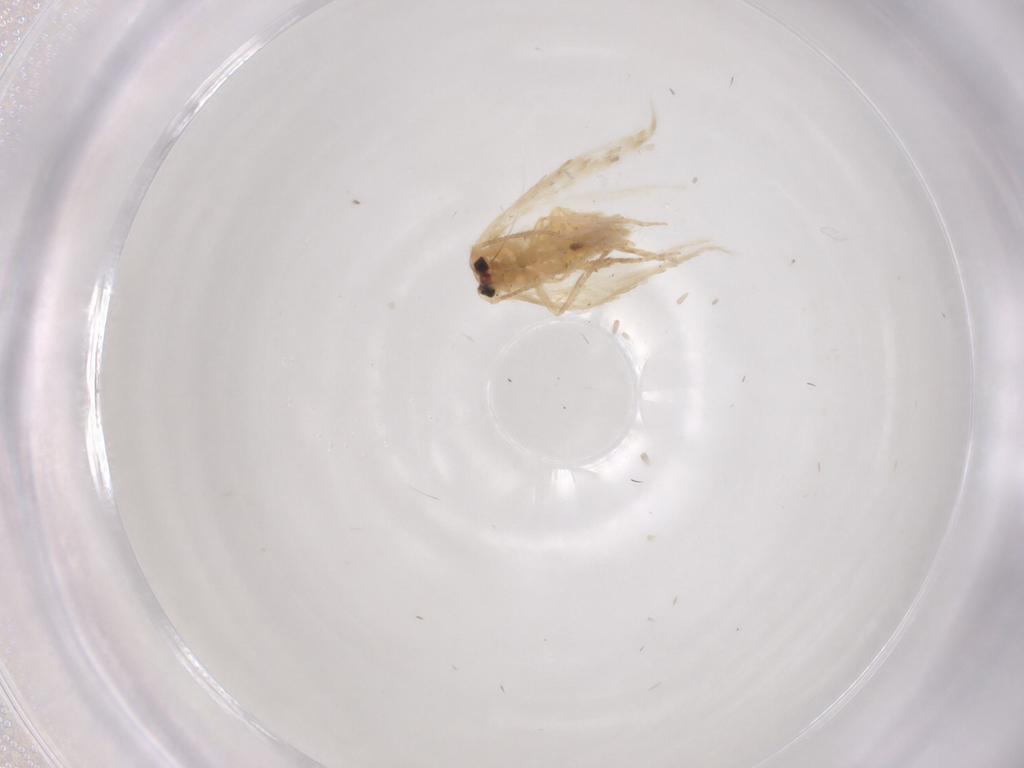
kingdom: Animalia
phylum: Arthropoda
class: Insecta
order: Lepidoptera
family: Nepticulidae
